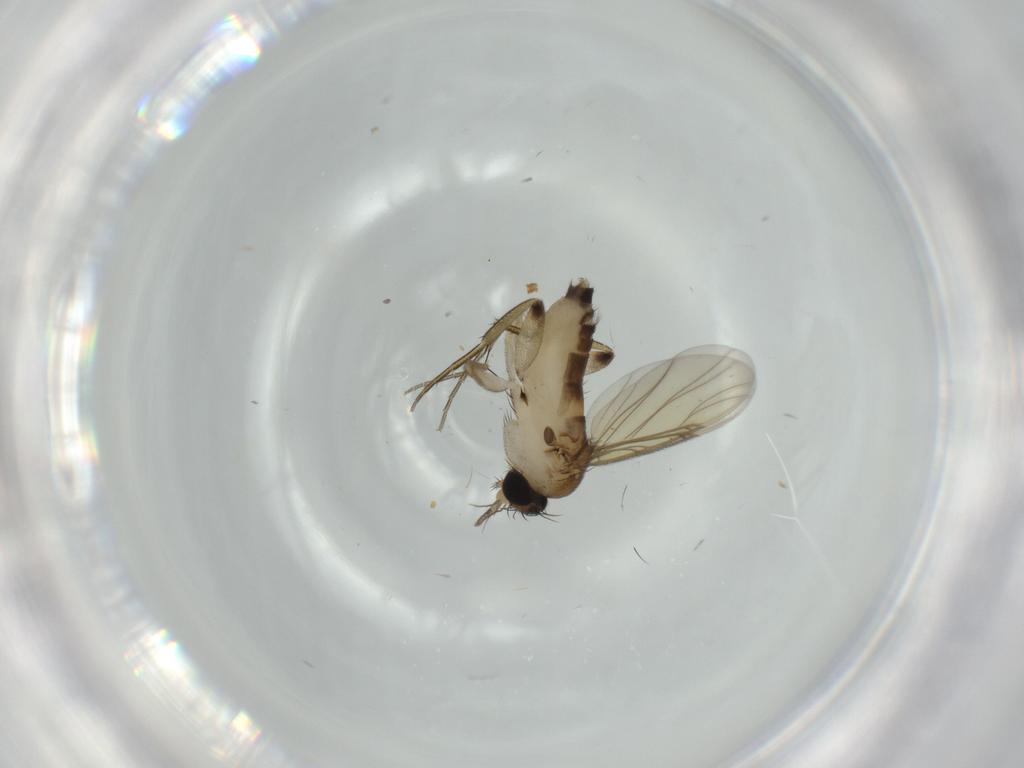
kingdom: Animalia
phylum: Arthropoda
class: Insecta
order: Diptera
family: Phoridae
